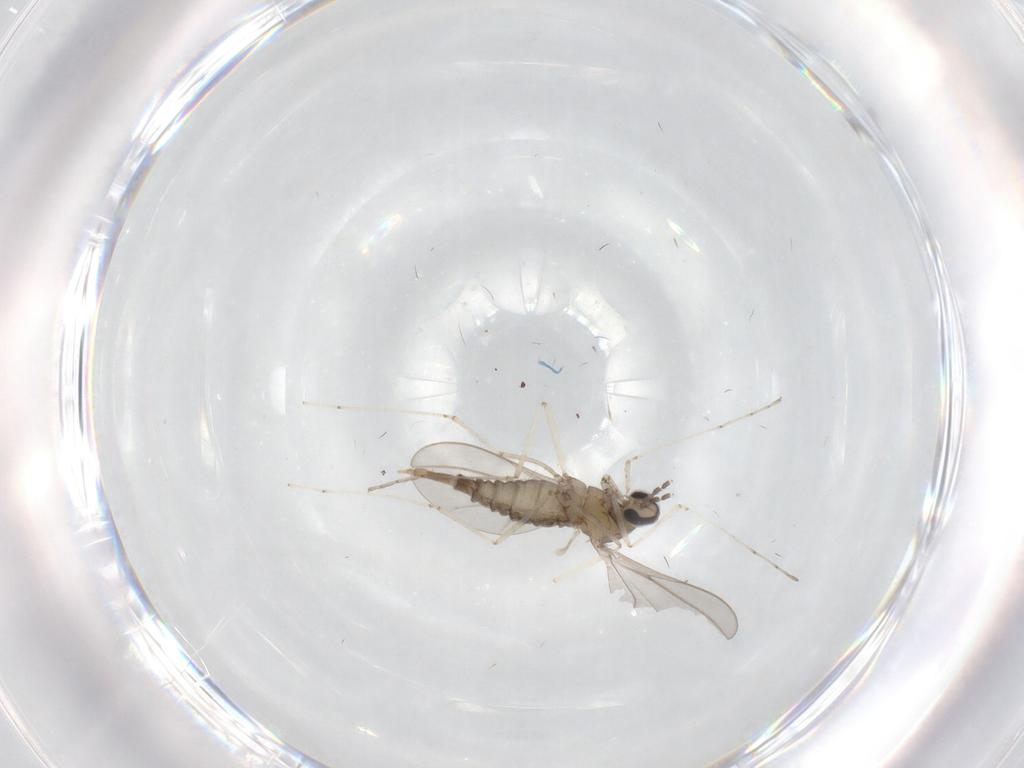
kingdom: Animalia
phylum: Arthropoda
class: Insecta
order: Diptera
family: Cecidomyiidae
